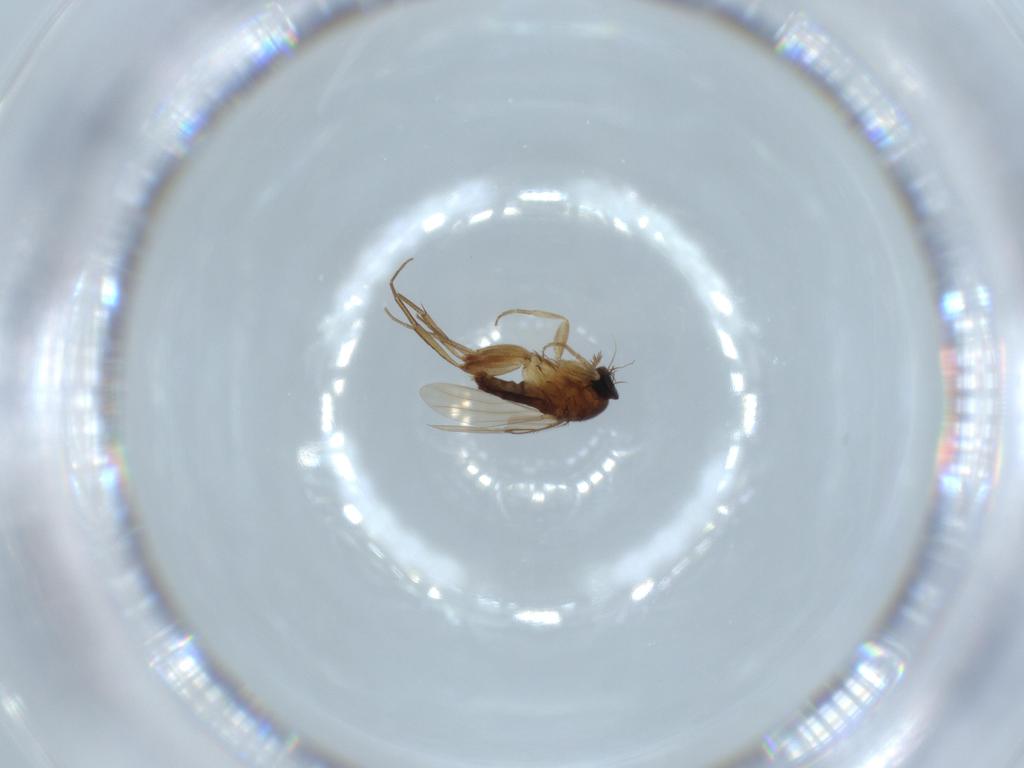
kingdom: Animalia
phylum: Arthropoda
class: Insecta
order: Diptera
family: Phoridae
